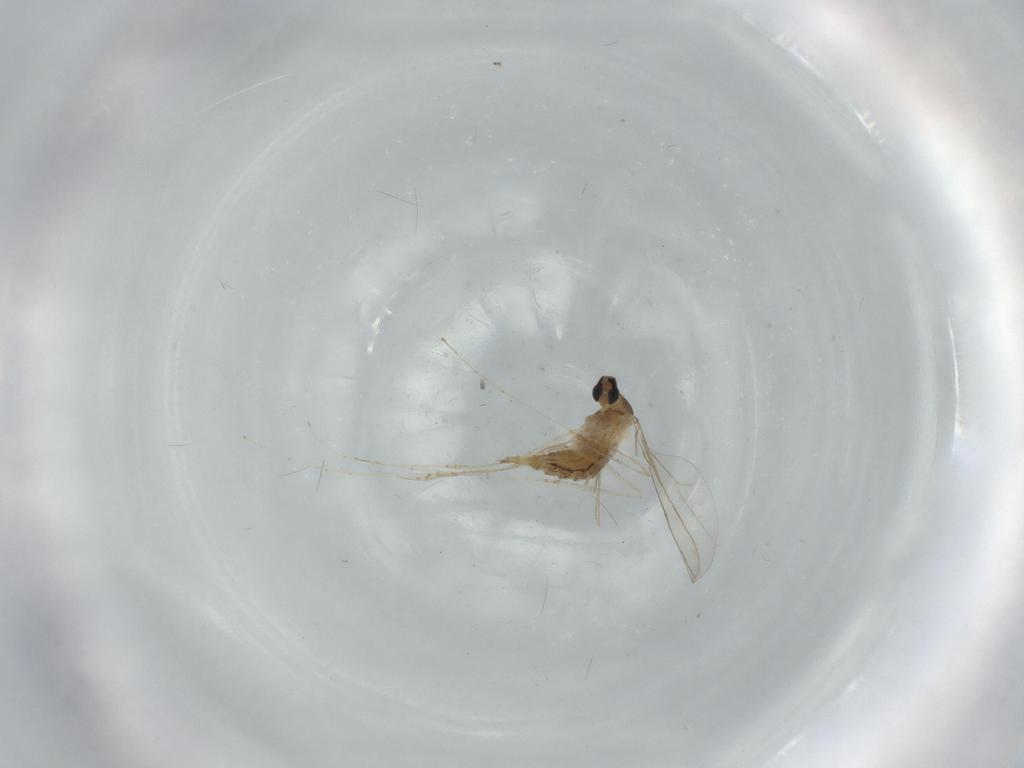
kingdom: Animalia
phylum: Arthropoda
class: Insecta
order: Diptera
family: Cecidomyiidae
